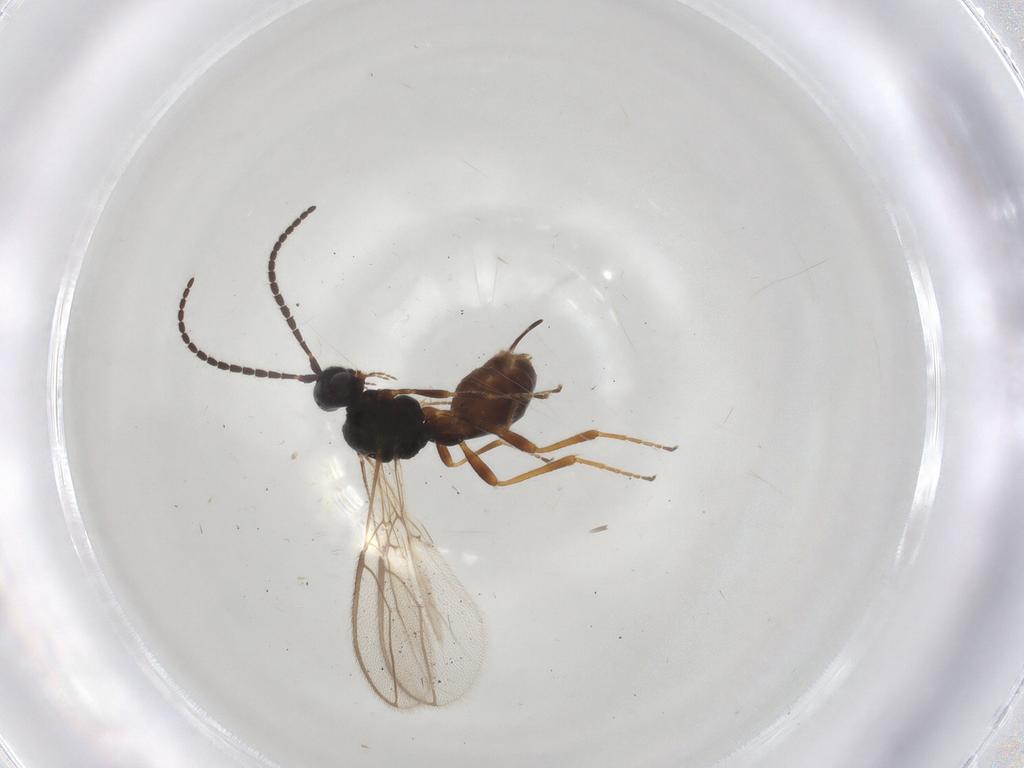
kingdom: Animalia
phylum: Arthropoda
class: Insecta
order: Hymenoptera
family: Braconidae
